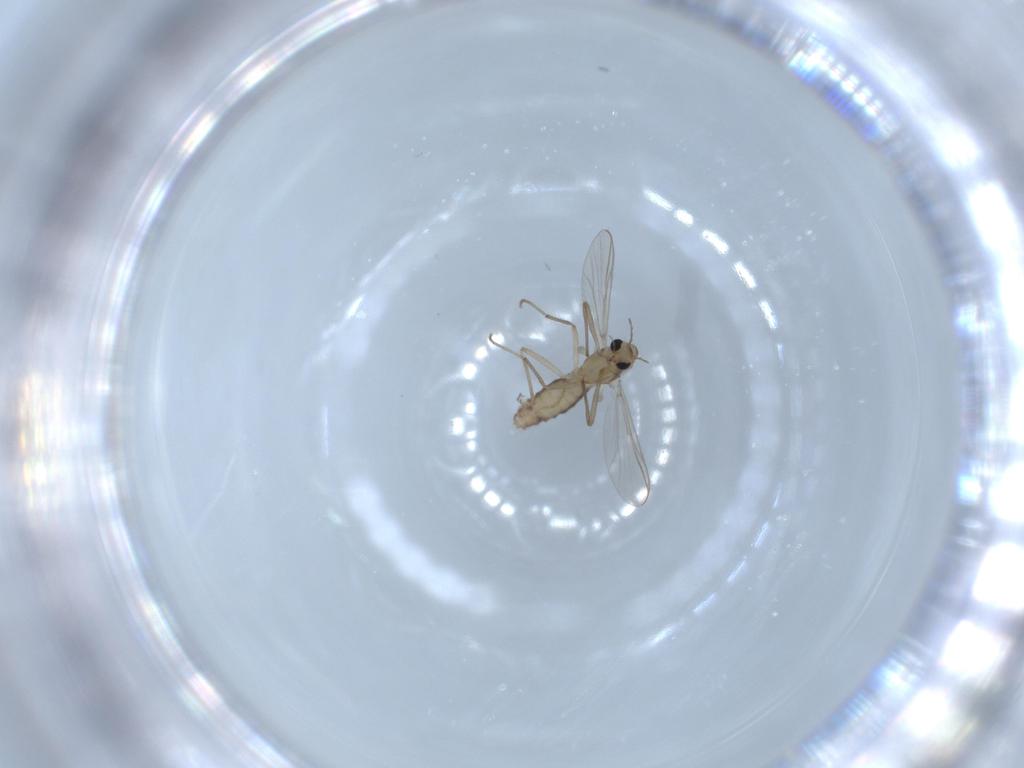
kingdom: Animalia
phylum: Arthropoda
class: Insecta
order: Diptera
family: Chironomidae
